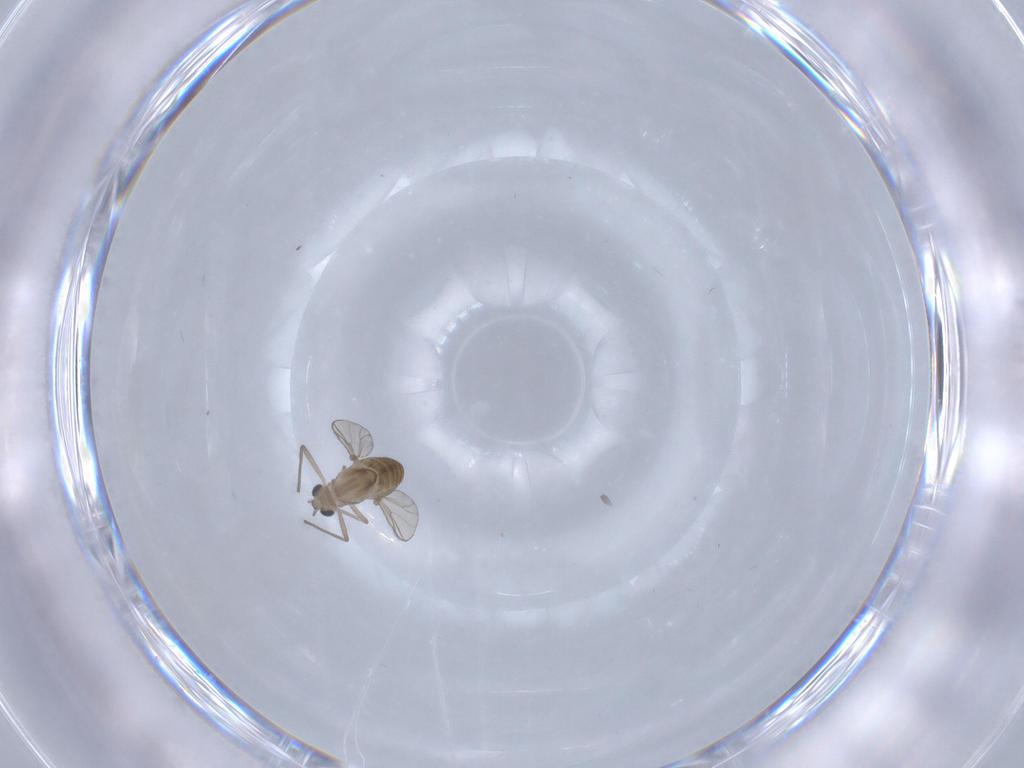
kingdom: Animalia
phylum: Arthropoda
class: Insecta
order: Diptera
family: Chironomidae
